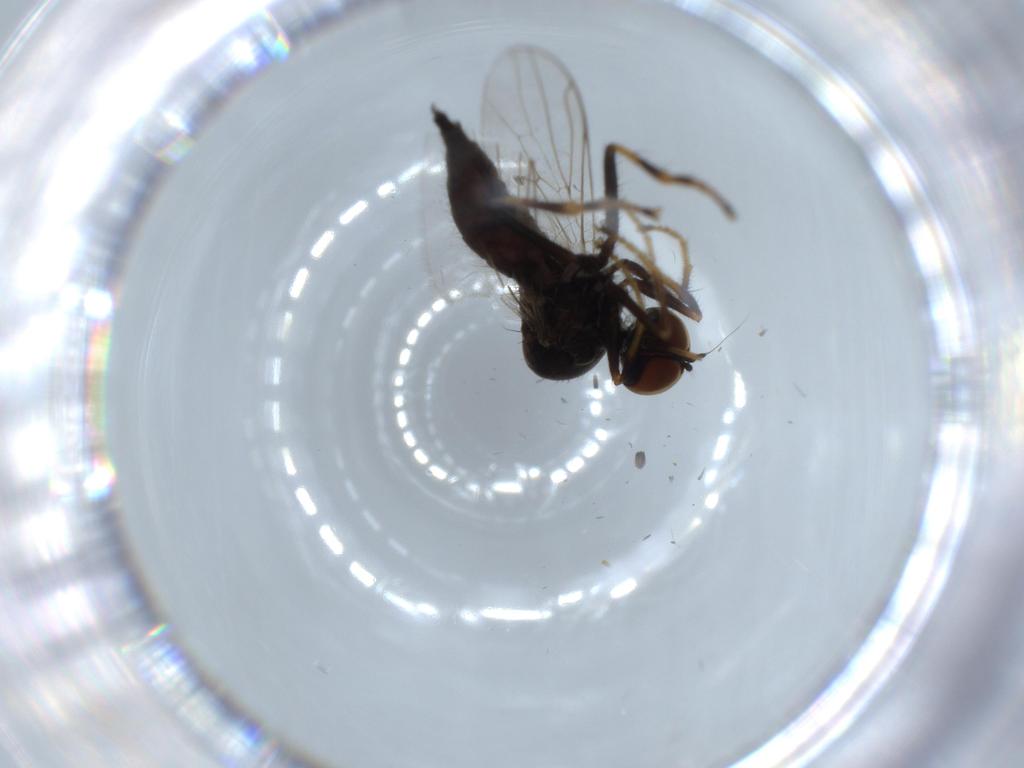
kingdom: Animalia
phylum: Arthropoda
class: Insecta
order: Diptera
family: Hybotidae
